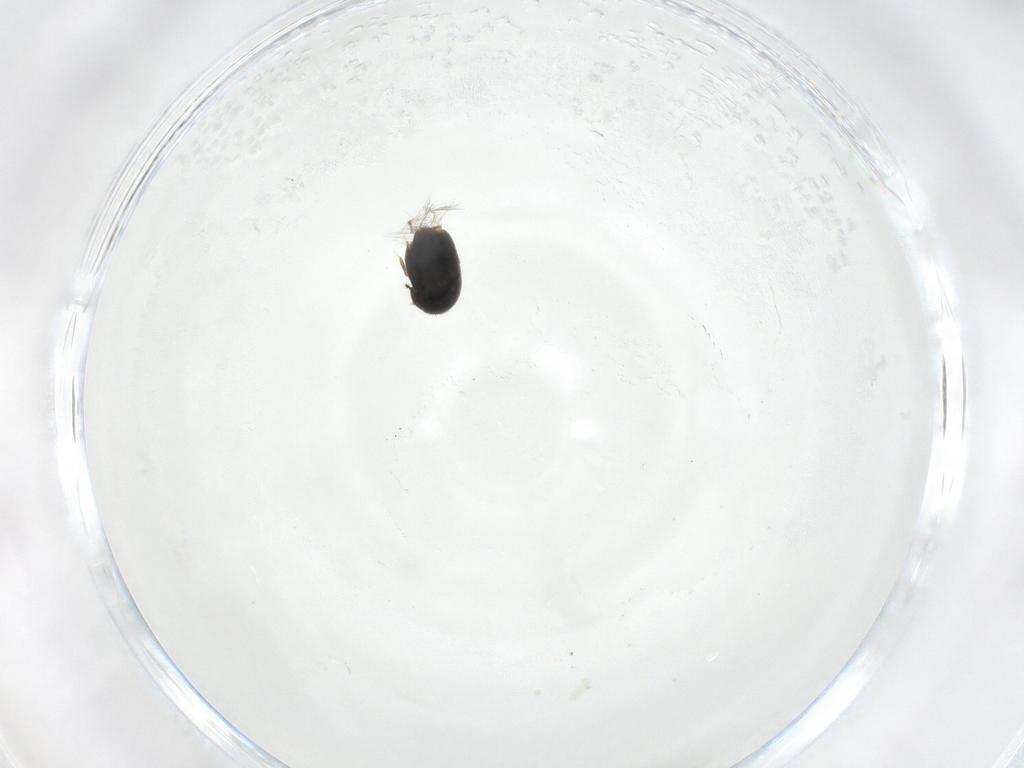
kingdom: Animalia
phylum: Arthropoda
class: Insecta
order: Coleoptera
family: Ptiliidae
